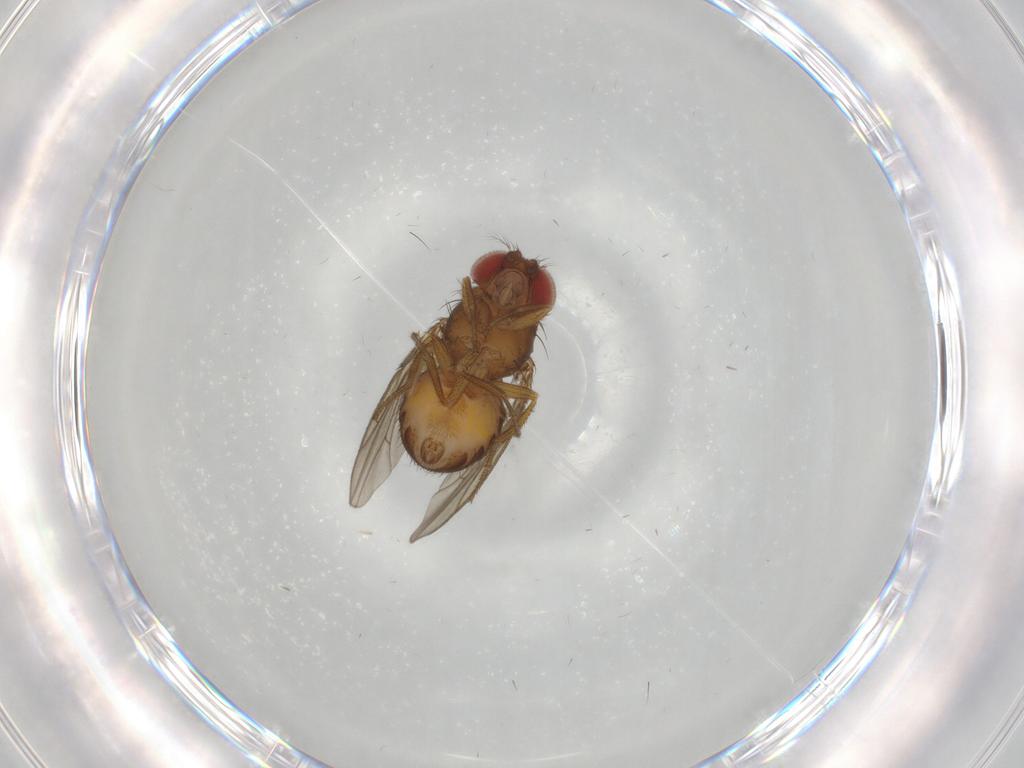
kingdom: Animalia
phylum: Arthropoda
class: Insecta
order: Diptera
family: Drosophilidae
